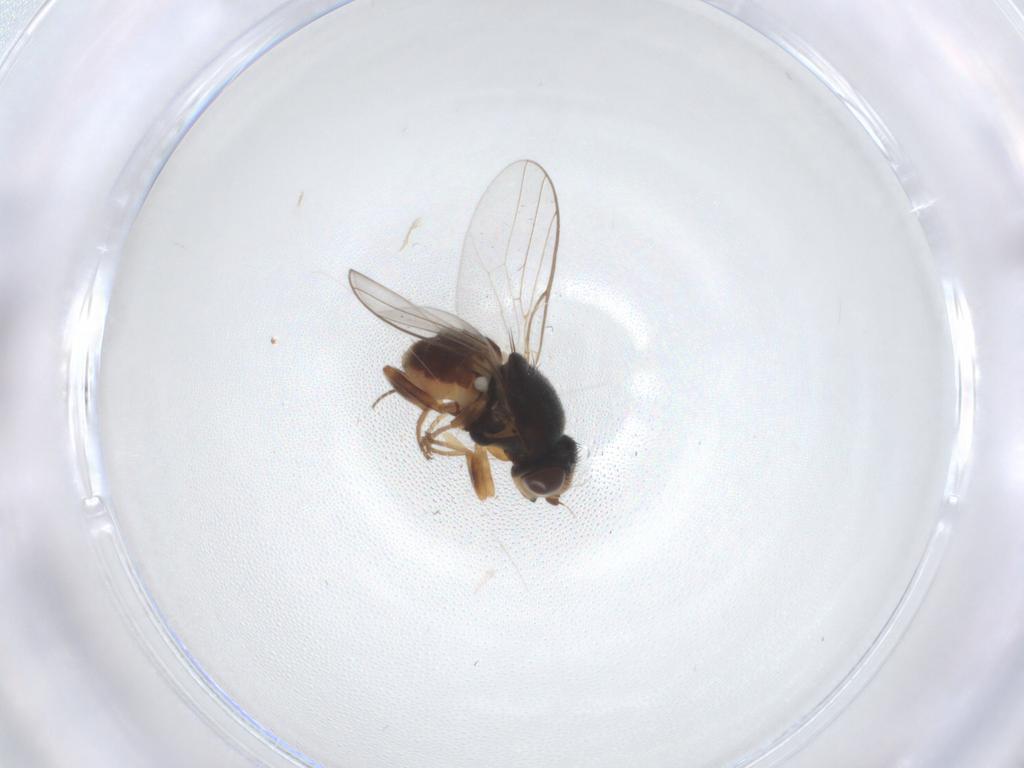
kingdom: Animalia
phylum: Arthropoda
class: Insecta
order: Diptera
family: Chloropidae
